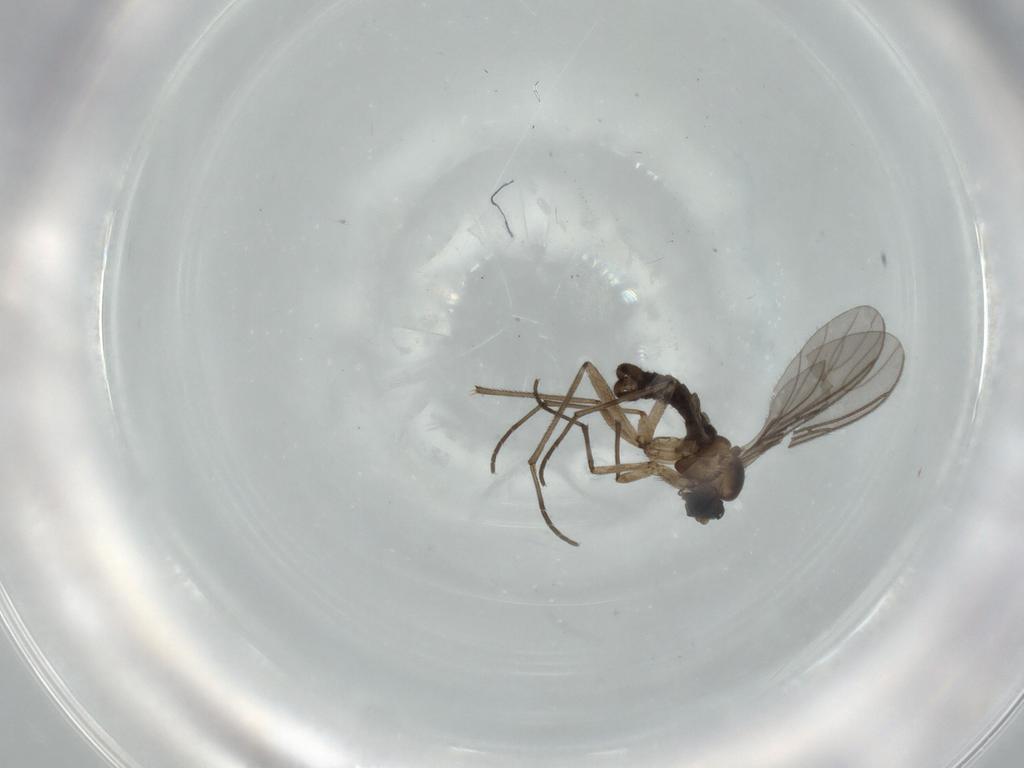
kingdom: Animalia
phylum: Arthropoda
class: Insecta
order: Diptera
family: Sciaridae
